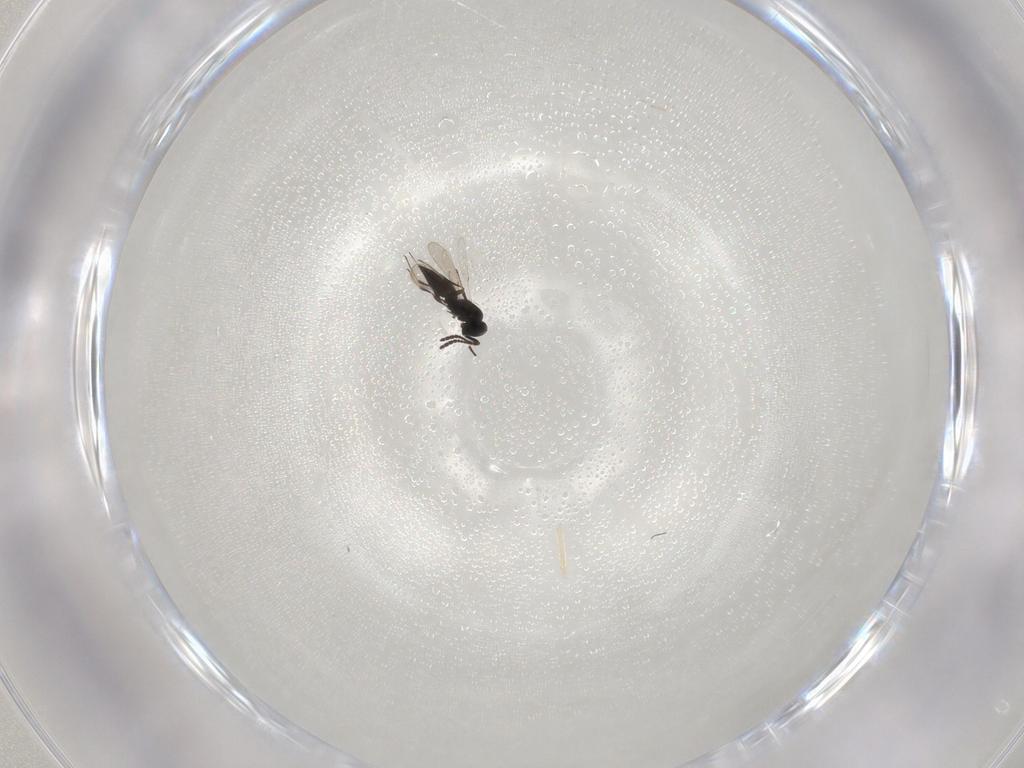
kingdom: Animalia
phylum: Arthropoda
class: Insecta
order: Hymenoptera
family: Scelionidae
